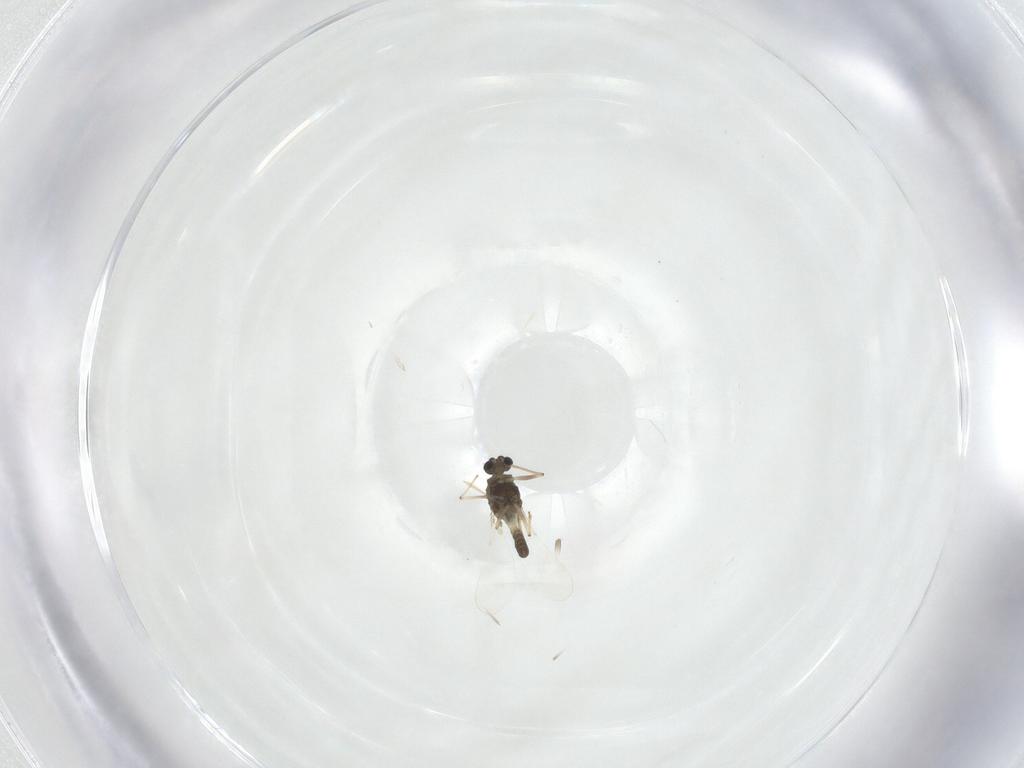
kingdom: Animalia
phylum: Arthropoda
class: Insecta
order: Diptera
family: Chironomidae
